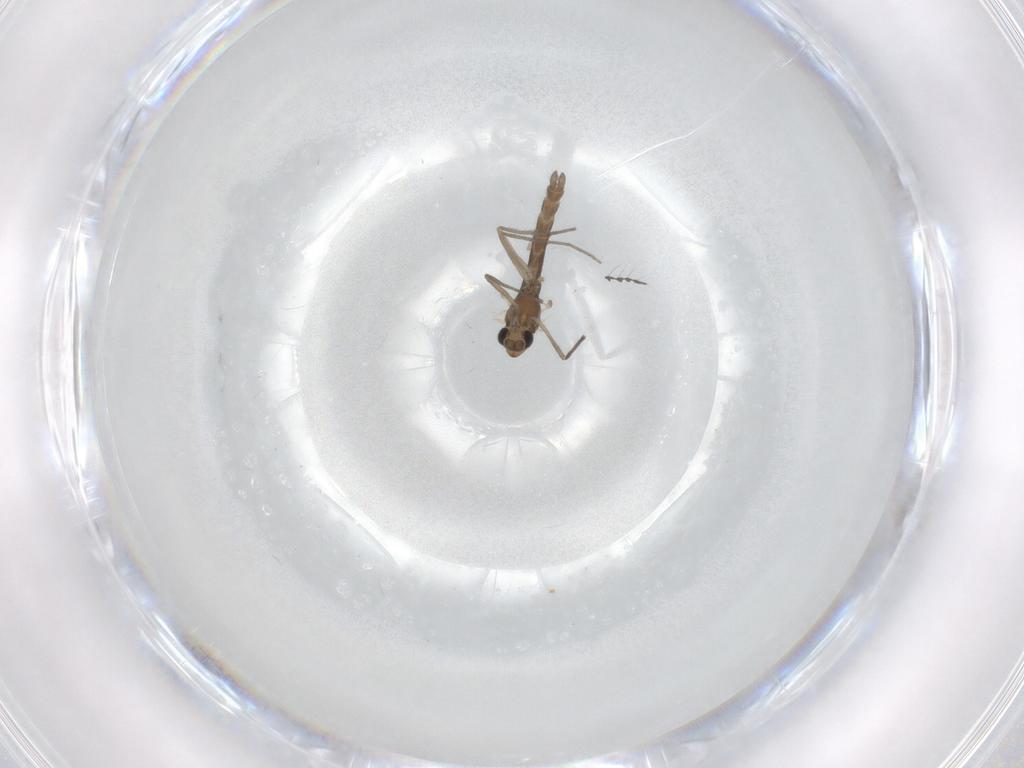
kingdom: Animalia
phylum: Arthropoda
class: Insecta
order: Diptera
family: Chironomidae
